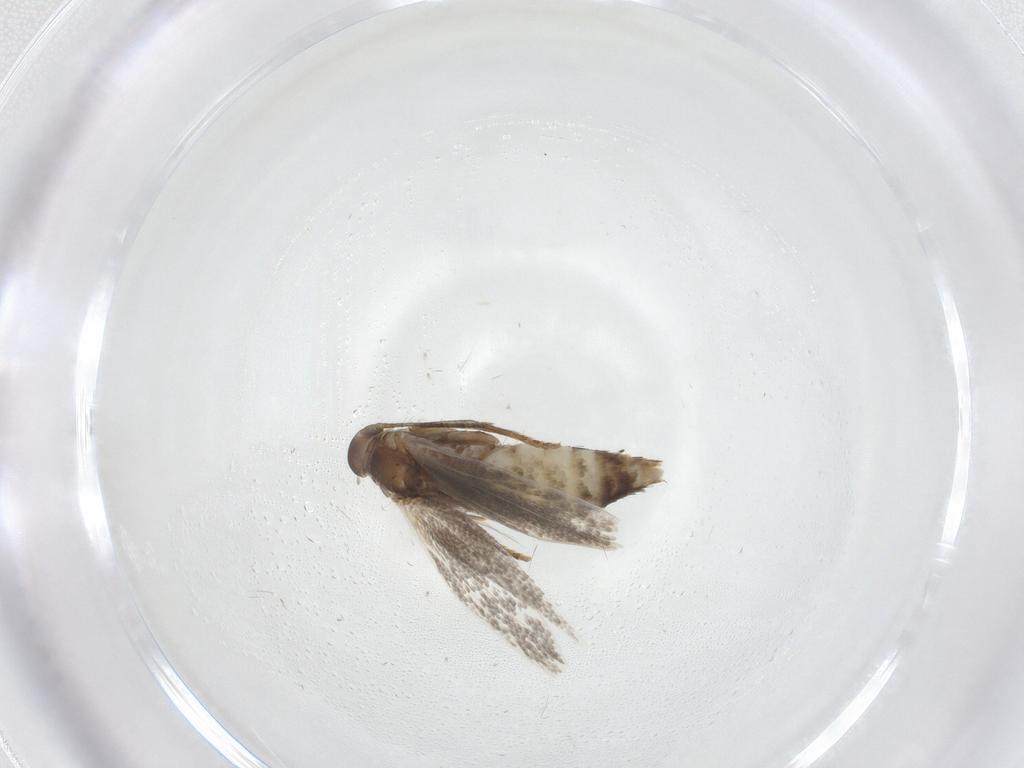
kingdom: Animalia
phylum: Arthropoda
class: Insecta
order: Lepidoptera
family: Elachistidae
